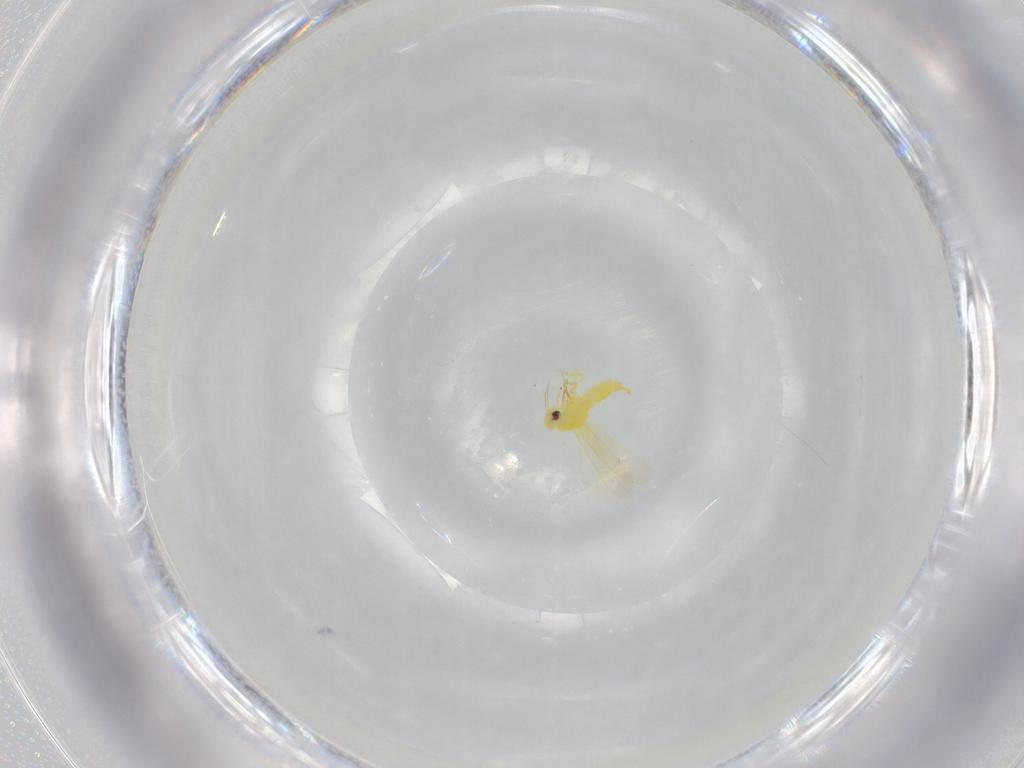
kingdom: Animalia
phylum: Arthropoda
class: Insecta
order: Hemiptera
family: Aleyrodidae
